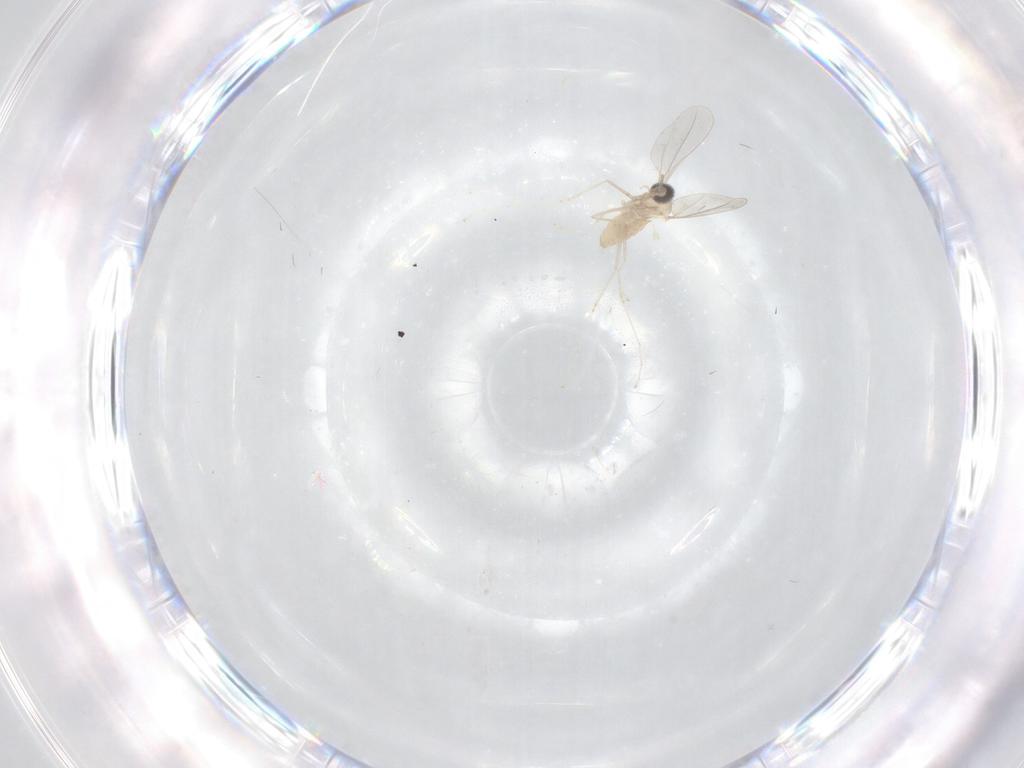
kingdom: Animalia
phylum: Arthropoda
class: Insecta
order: Diptera
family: Cecidomyiidae
